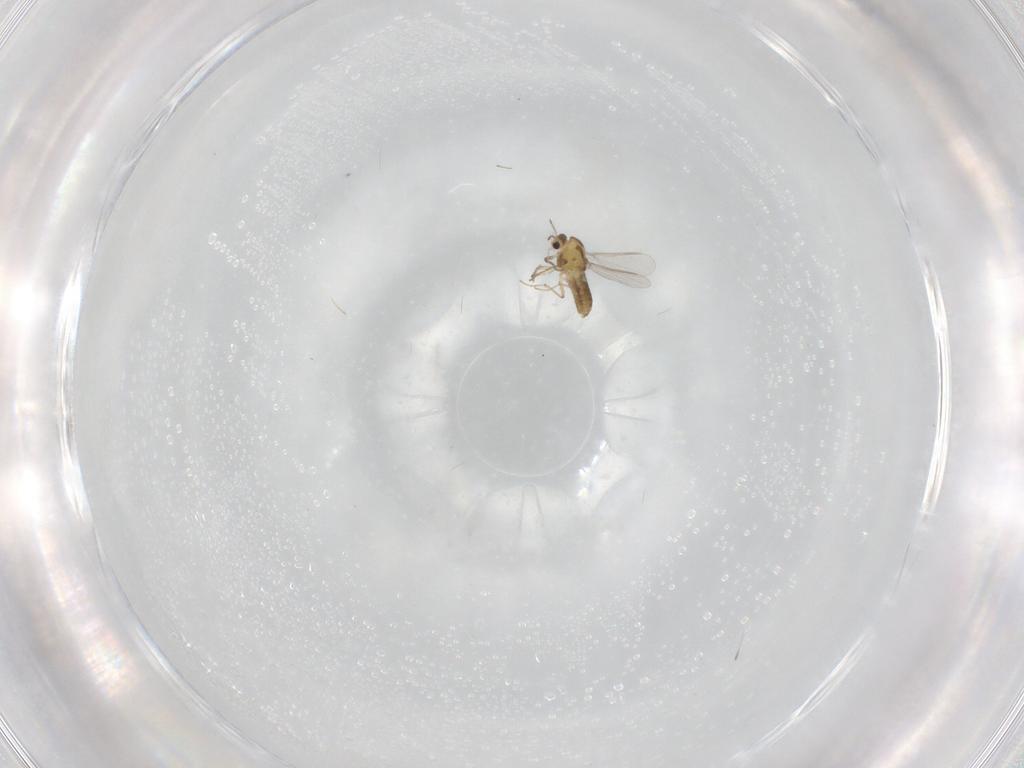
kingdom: Animalia
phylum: Arthropoda
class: Insecta
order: Diptera
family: Chironomidae
